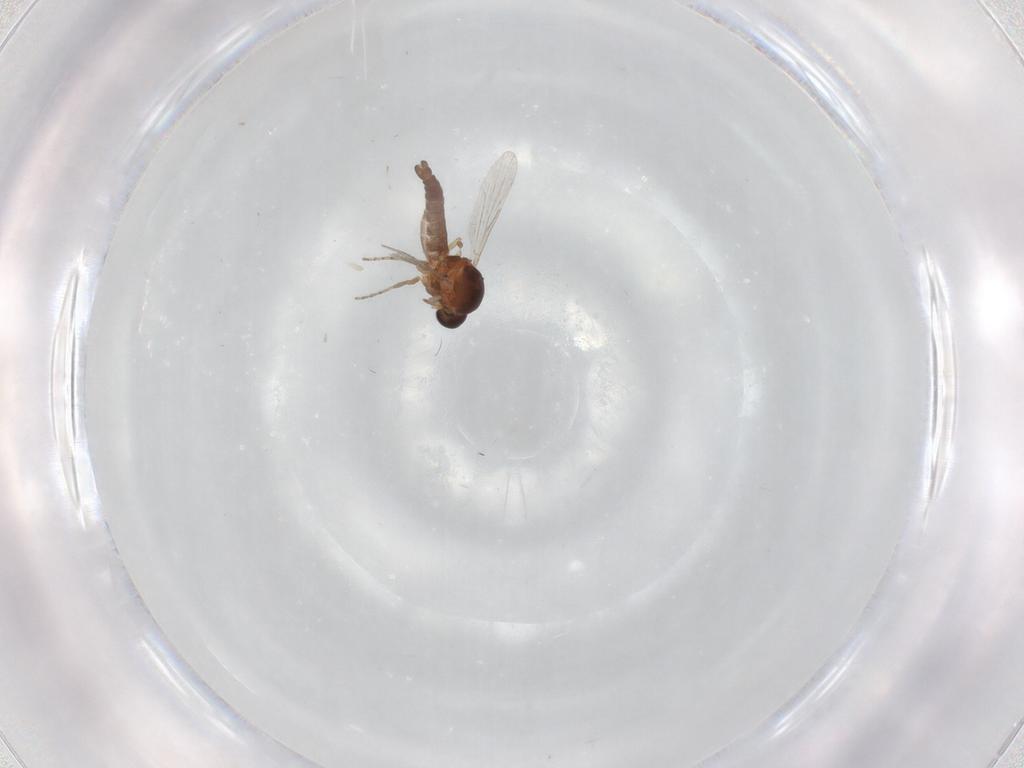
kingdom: Animalia
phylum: Arthropoda
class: Insecta
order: Diptera
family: Ceratopogonidae
